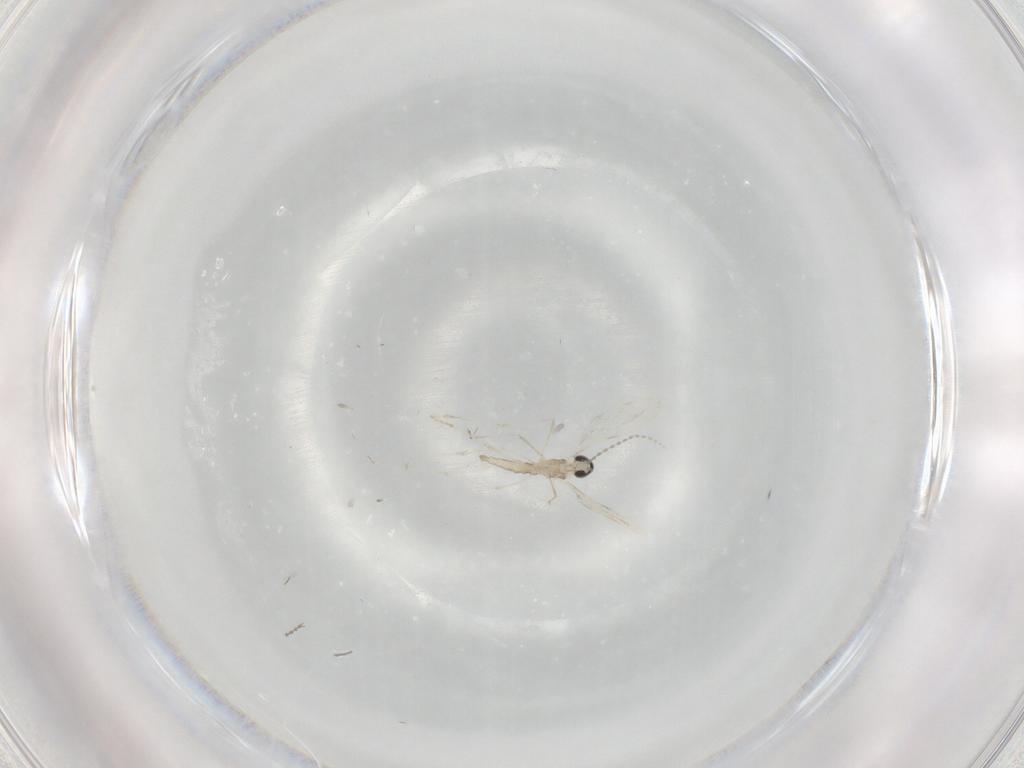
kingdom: Animalia
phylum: Arthropoda
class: Insecta
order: Diptera
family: Cecidomyiidae
